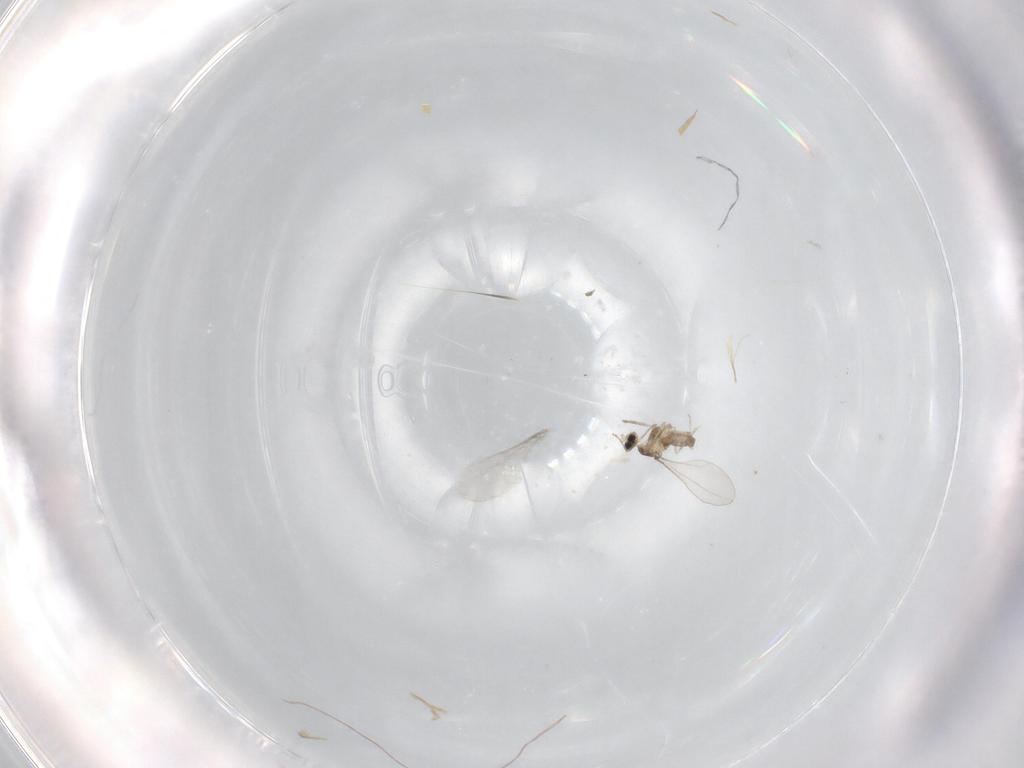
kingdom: Animalia
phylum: Arthropoda
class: Insecta
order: Diptera
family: Cecidomyiidae
